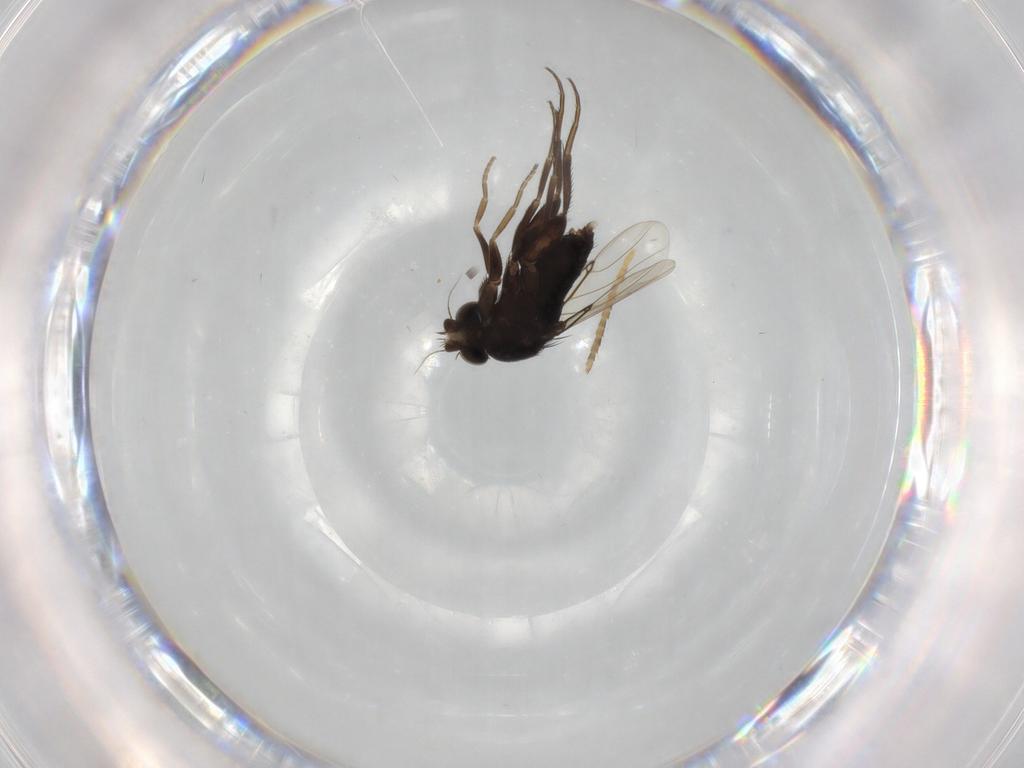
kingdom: Animalia
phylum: Arthropoda
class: Insecta
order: Diptera
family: Phoridae
